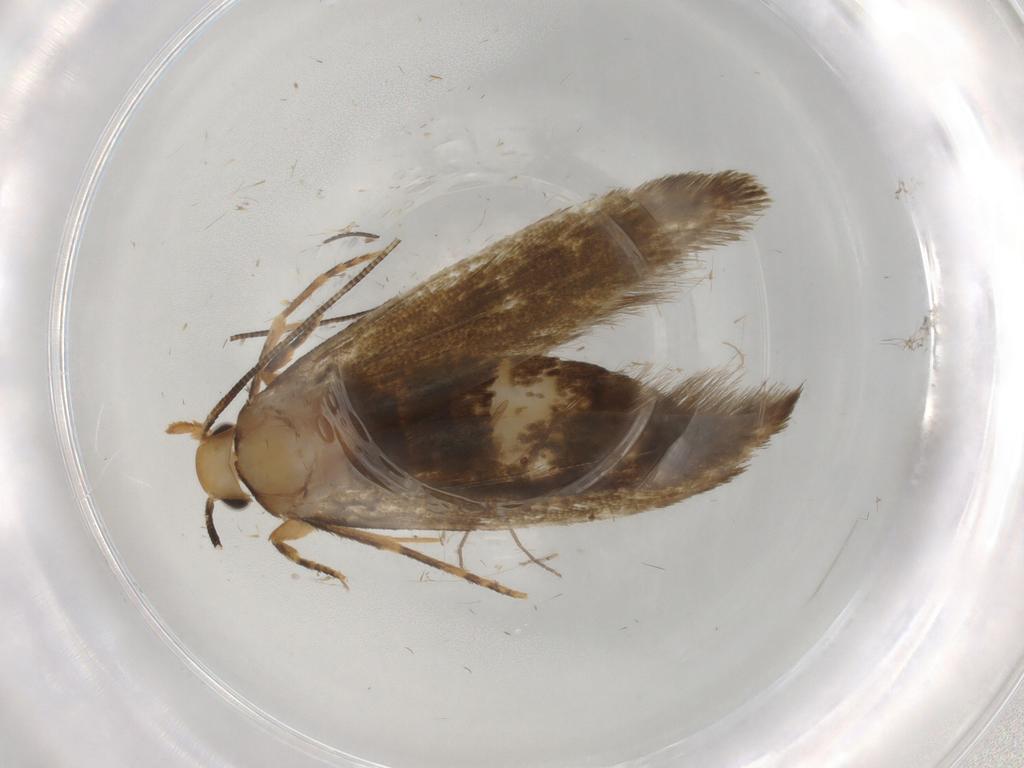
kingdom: Animalia
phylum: Arthropoda
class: Insecta
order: Lepidoptera
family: Tineidae
